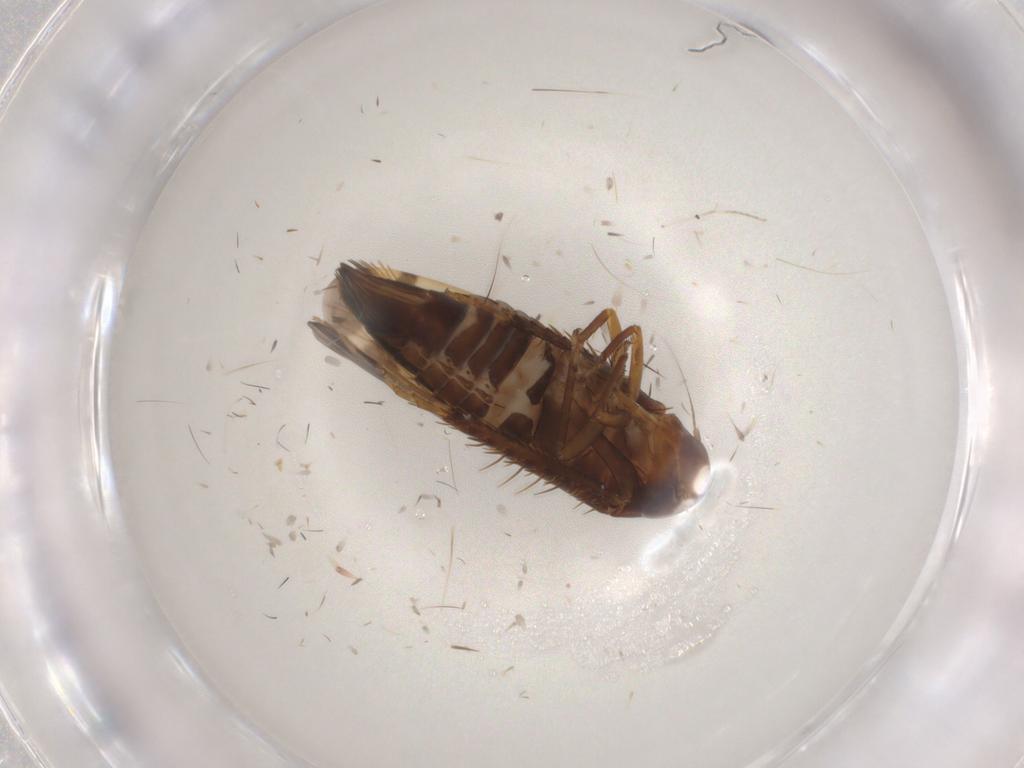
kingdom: Animalia
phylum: Arthropoda
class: Insecta
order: Hemiptera
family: Cicadellidae
